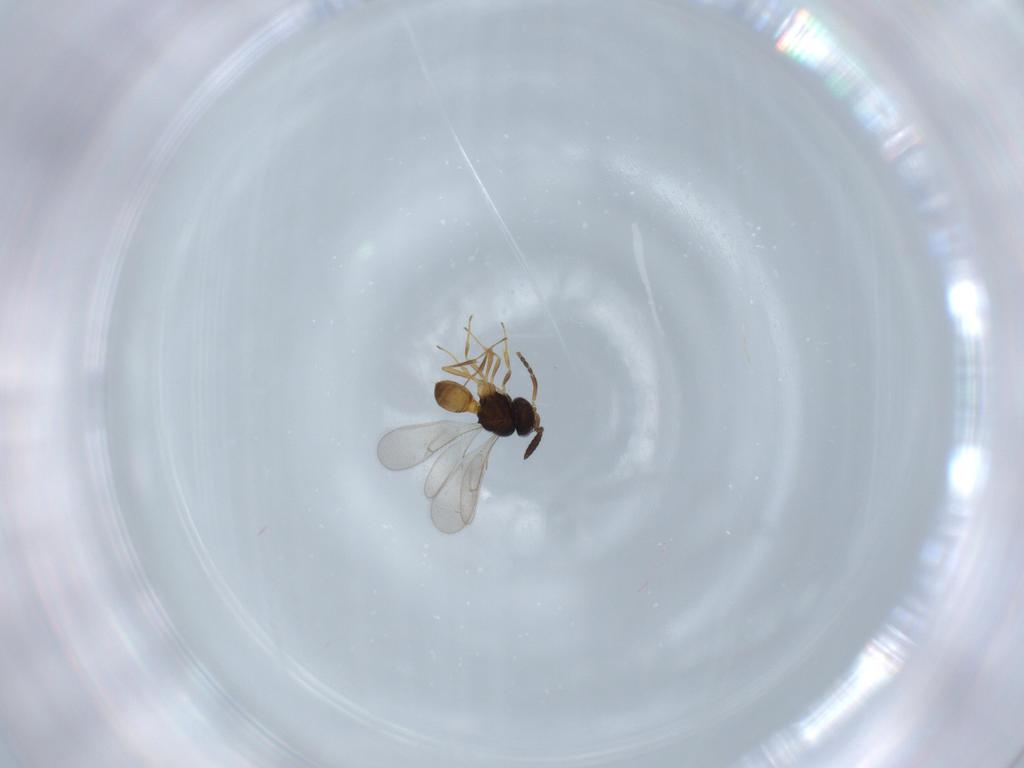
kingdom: Animalia
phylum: Arthropoda
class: Insecta
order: Hymenoptera
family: Scelionidae
